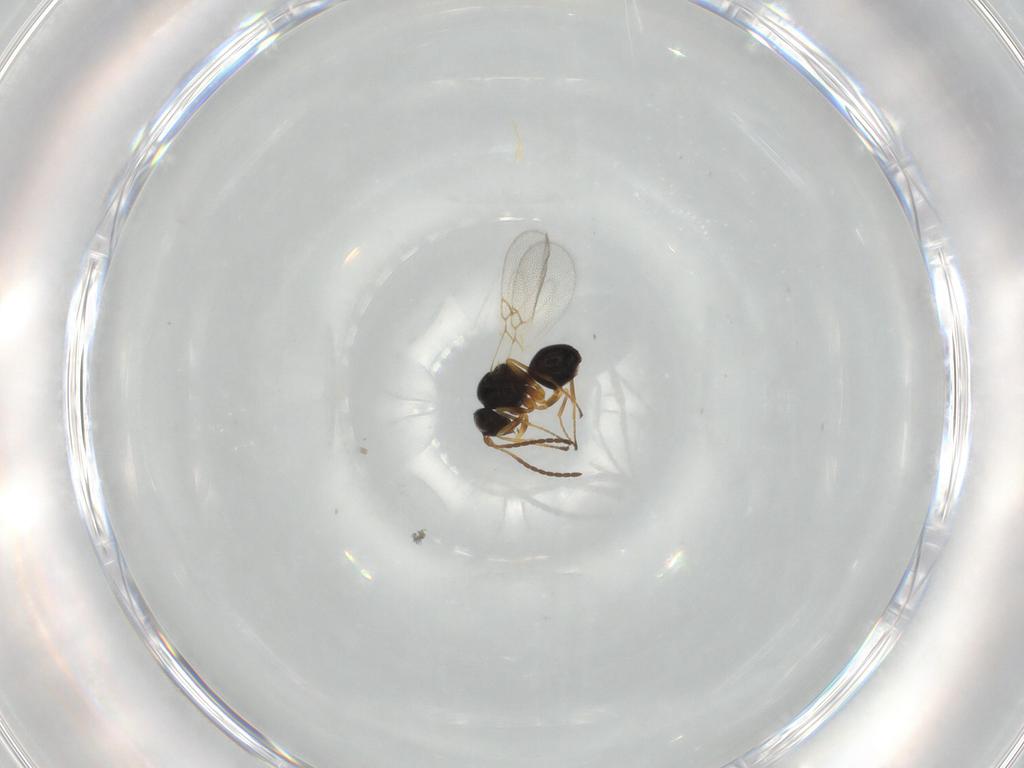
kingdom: Animalia
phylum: Arthropoda
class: Insecta
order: Hymenoptera
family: Figitidae
